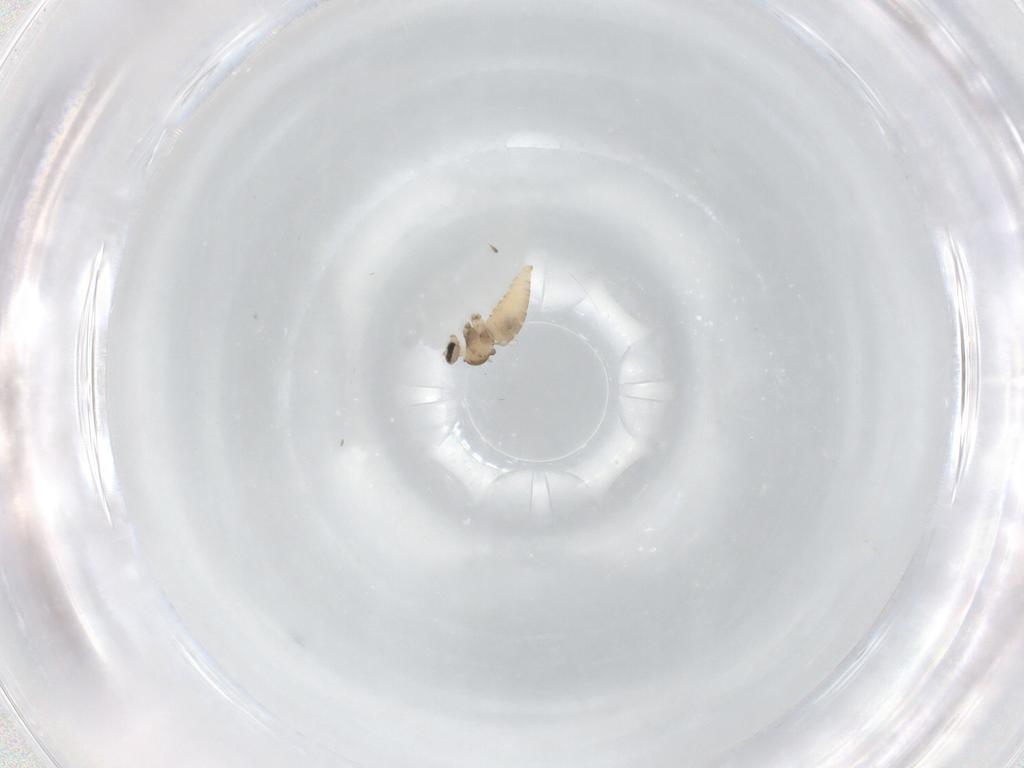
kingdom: Animalia
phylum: Arthropoda
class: Insecta
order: Diptera
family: Cecidomyiidae
